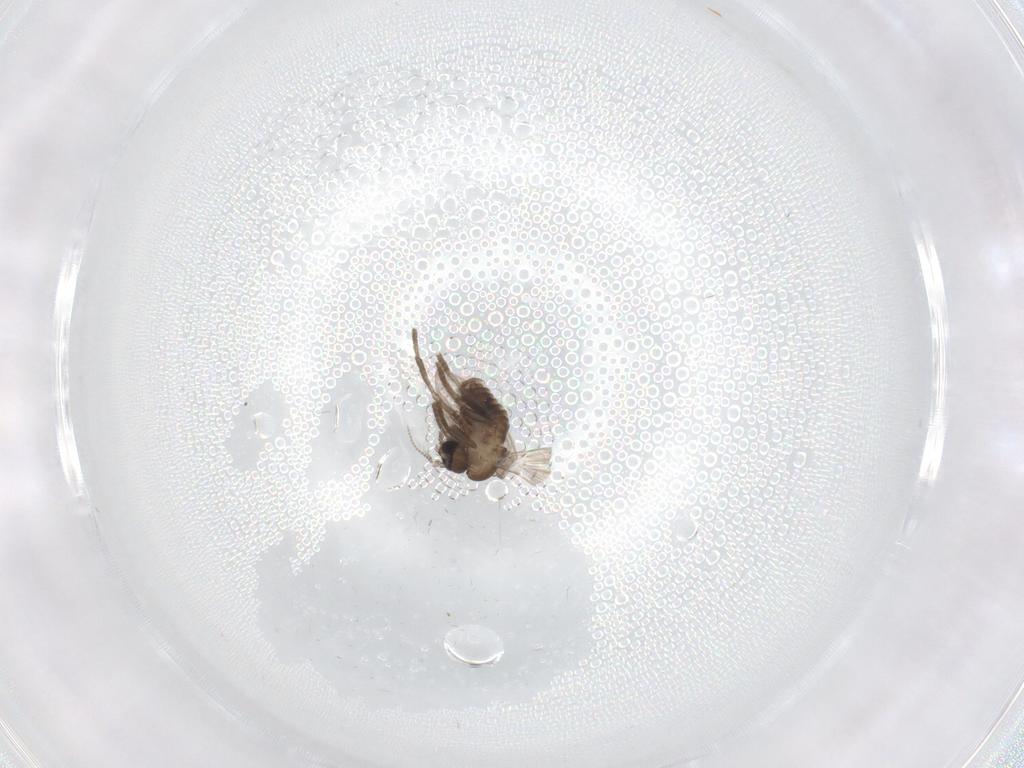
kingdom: Animalia
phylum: Arthropoda
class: Insecta
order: Diptera
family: Psychodidae
